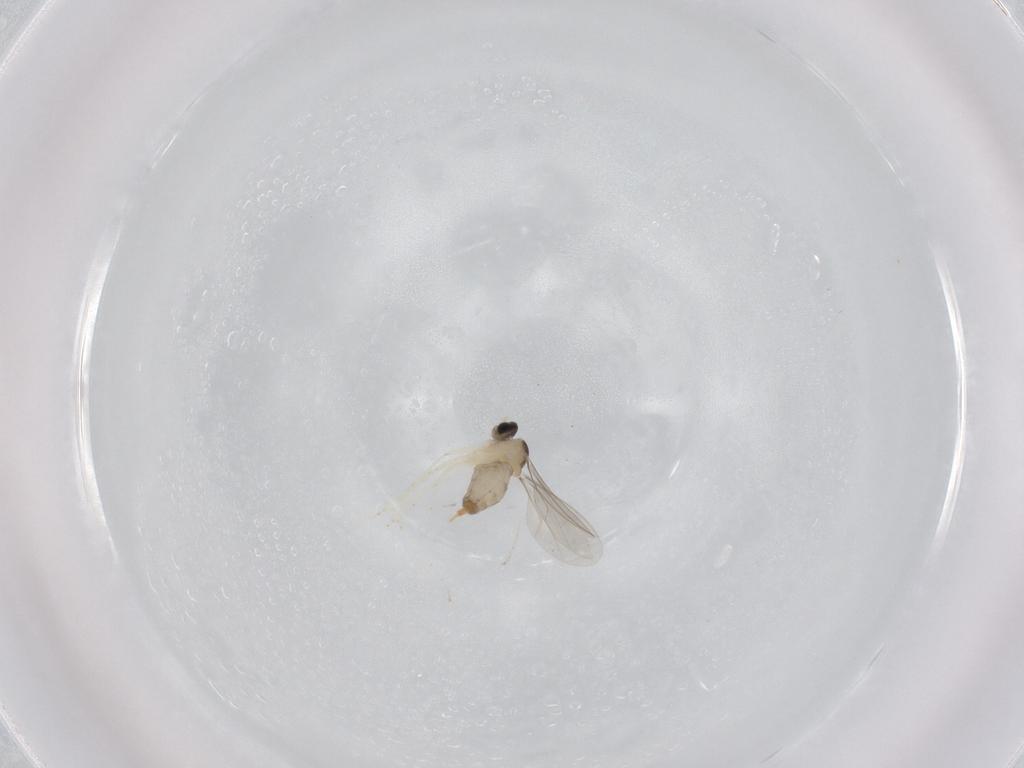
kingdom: Animalia
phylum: Arthropoda
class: Insecta
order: Diptera
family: Cecidomyiidae
